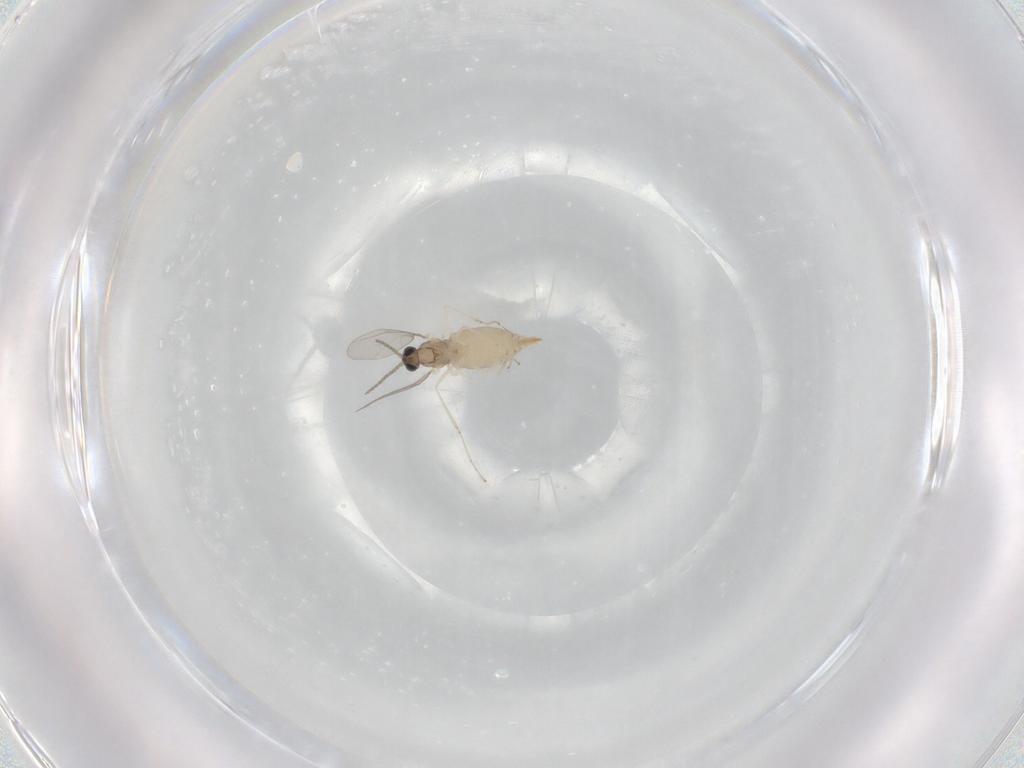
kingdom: Animalia
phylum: Arthropoda
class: Insecta
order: Diptera
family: Cecidomyiidae
